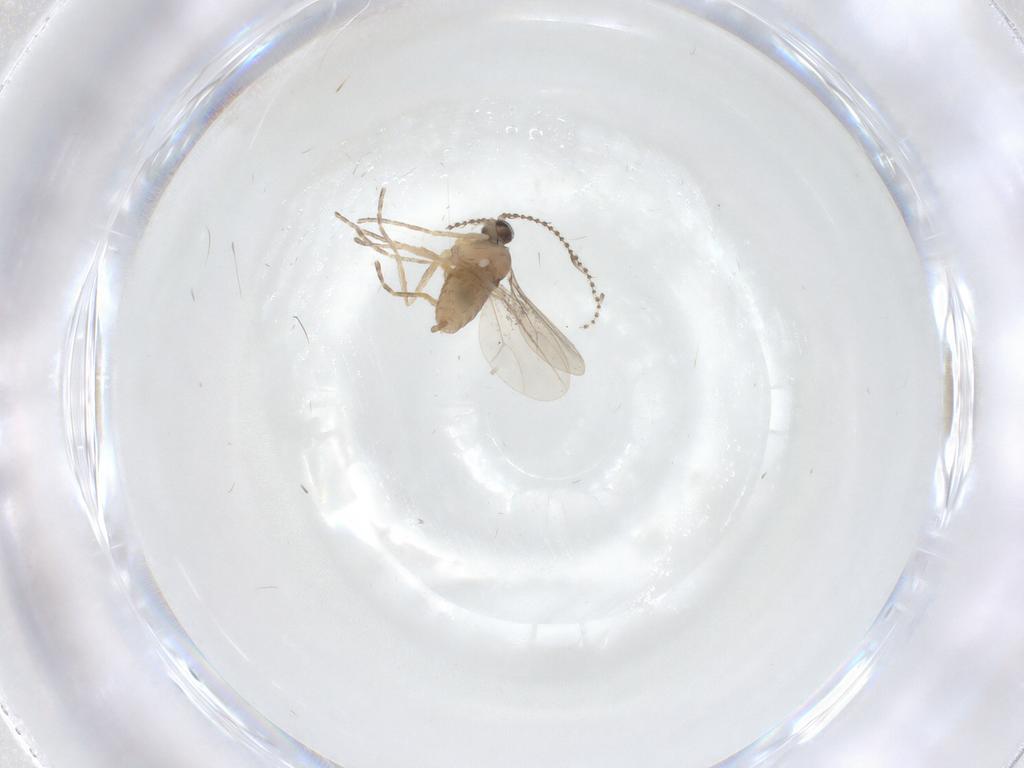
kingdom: Animalia
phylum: Arthropoda
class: Insecta
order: Diptera
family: Cecidomyiidae
